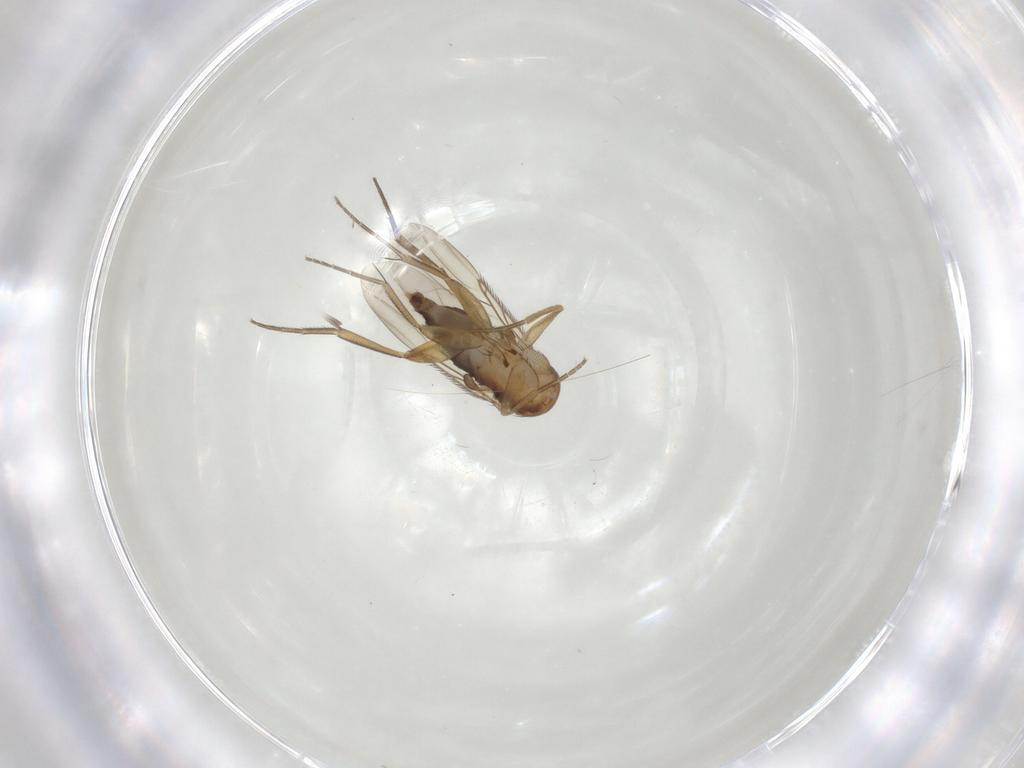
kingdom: Animalia
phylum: Arthropoda
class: Insecta
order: Diptera
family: Phoridae
